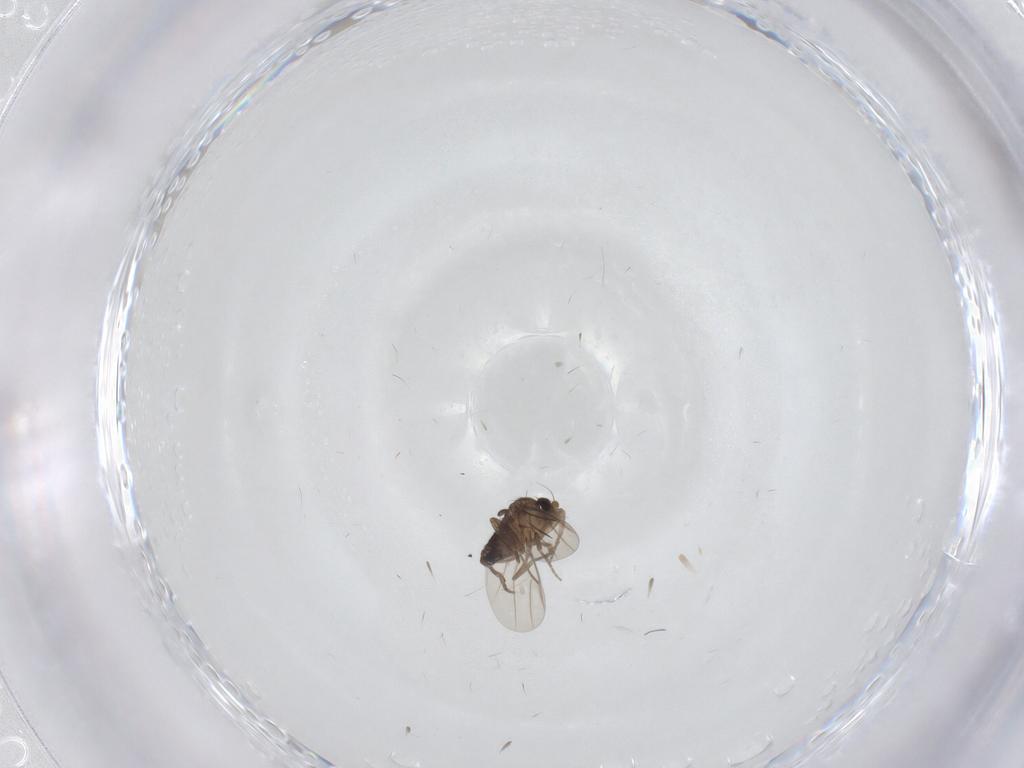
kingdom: Animalia
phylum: Arthropoda
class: Insecta
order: Diptera
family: Phoridae
